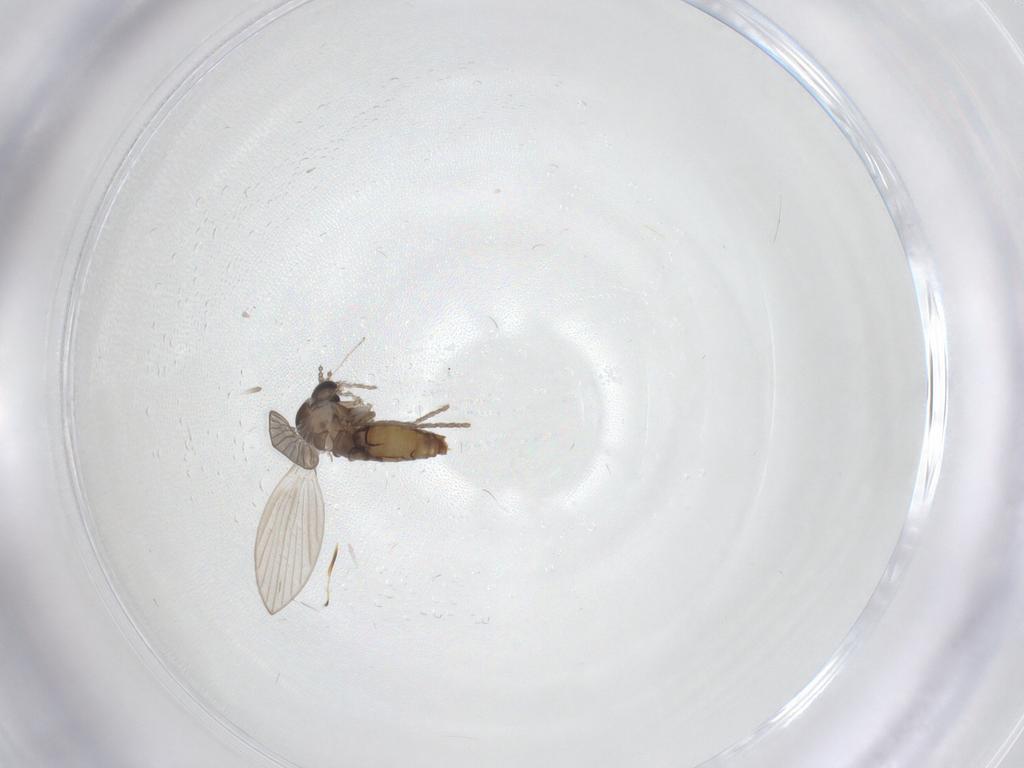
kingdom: Animalia
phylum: Arthropoda
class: Insecta
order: Diptera
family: Psychodidae
